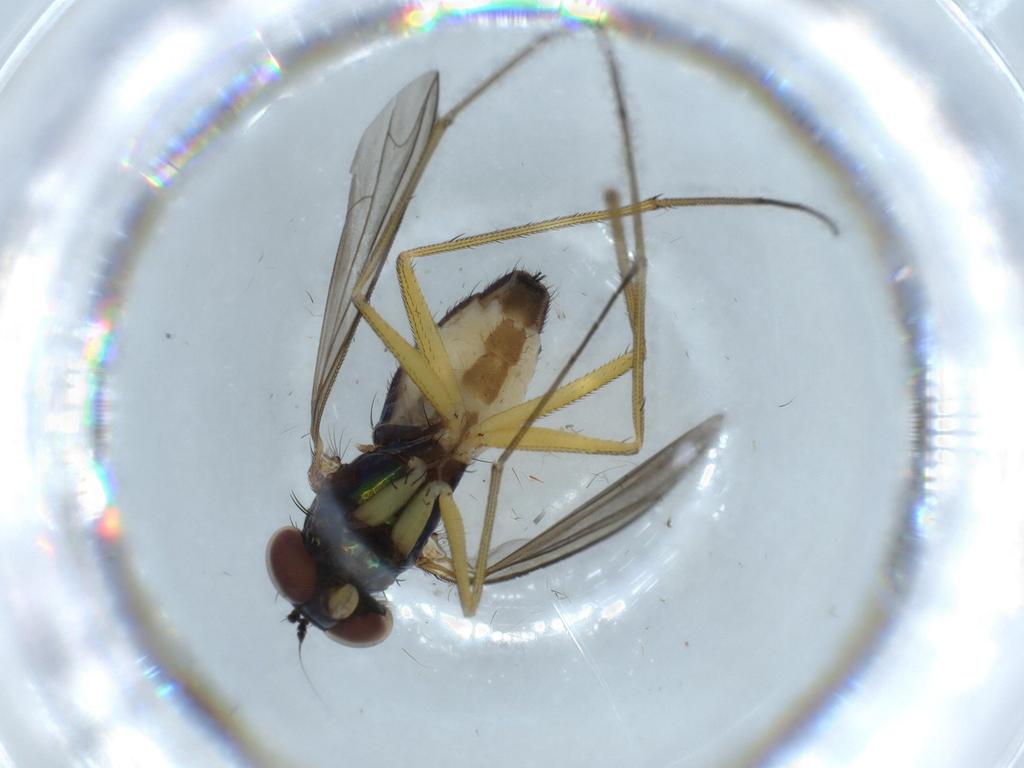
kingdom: Animalia
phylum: Arthropoda
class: Insecta
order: Diptera
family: Dolichopodidae
